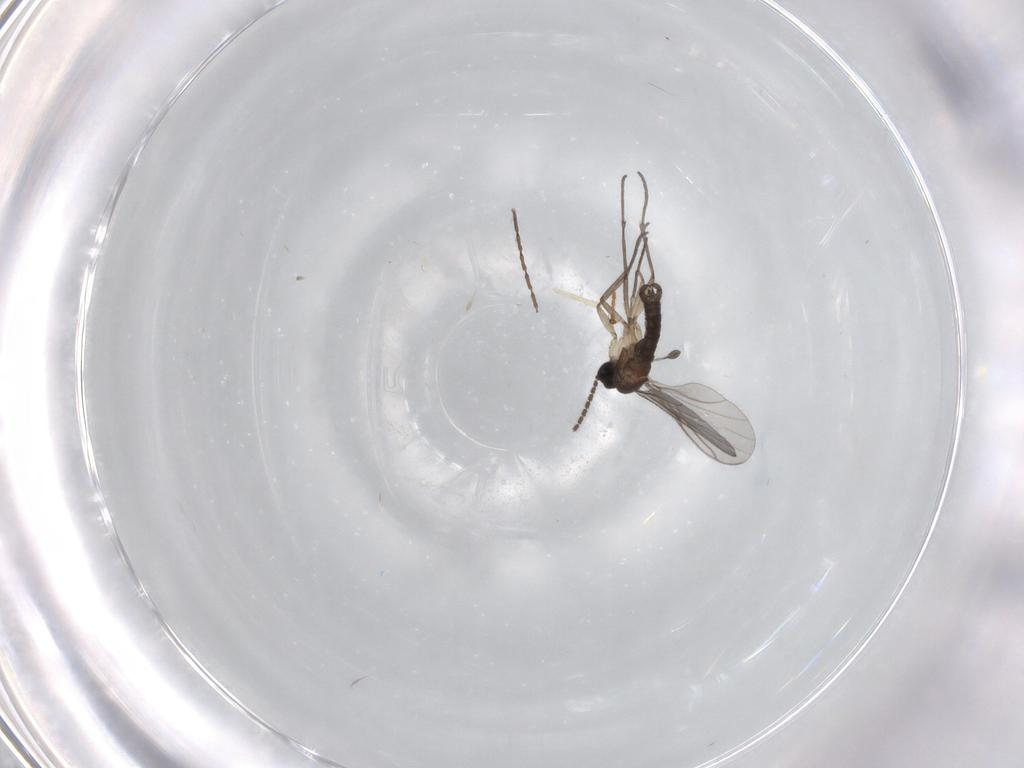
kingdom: Animalia
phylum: Arthropoda
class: Insecta
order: Diptera
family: Sciaridae
